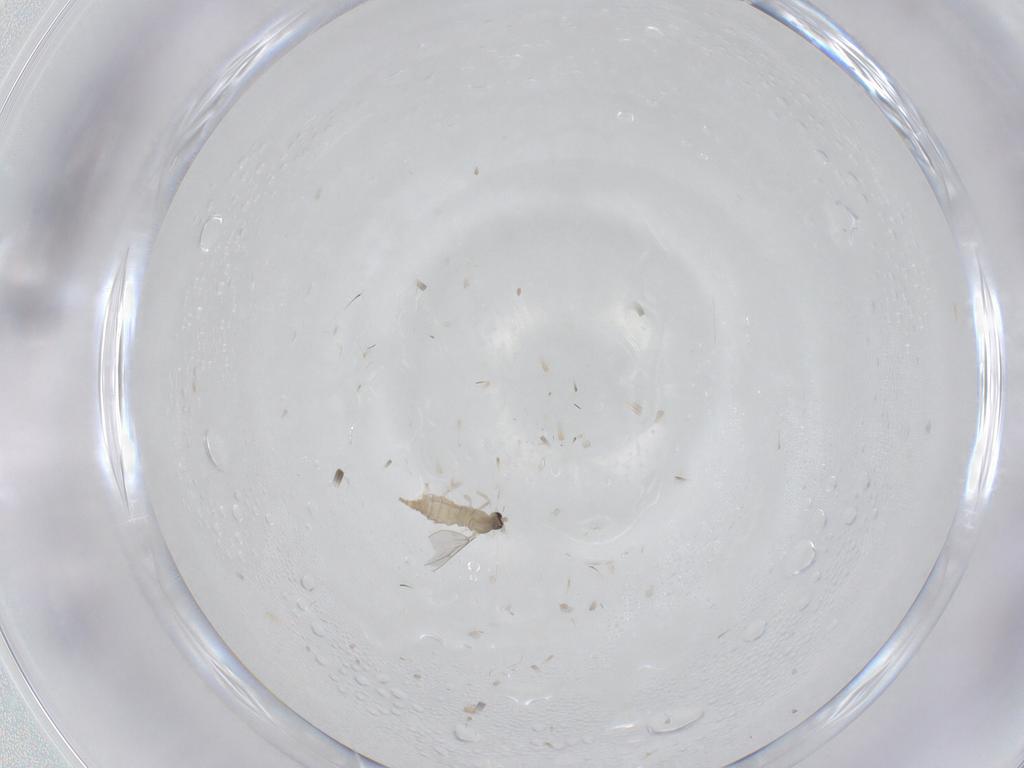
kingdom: Animalia
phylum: Arthropoda
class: Insecta
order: Diptera
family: Cecidomyiidae
